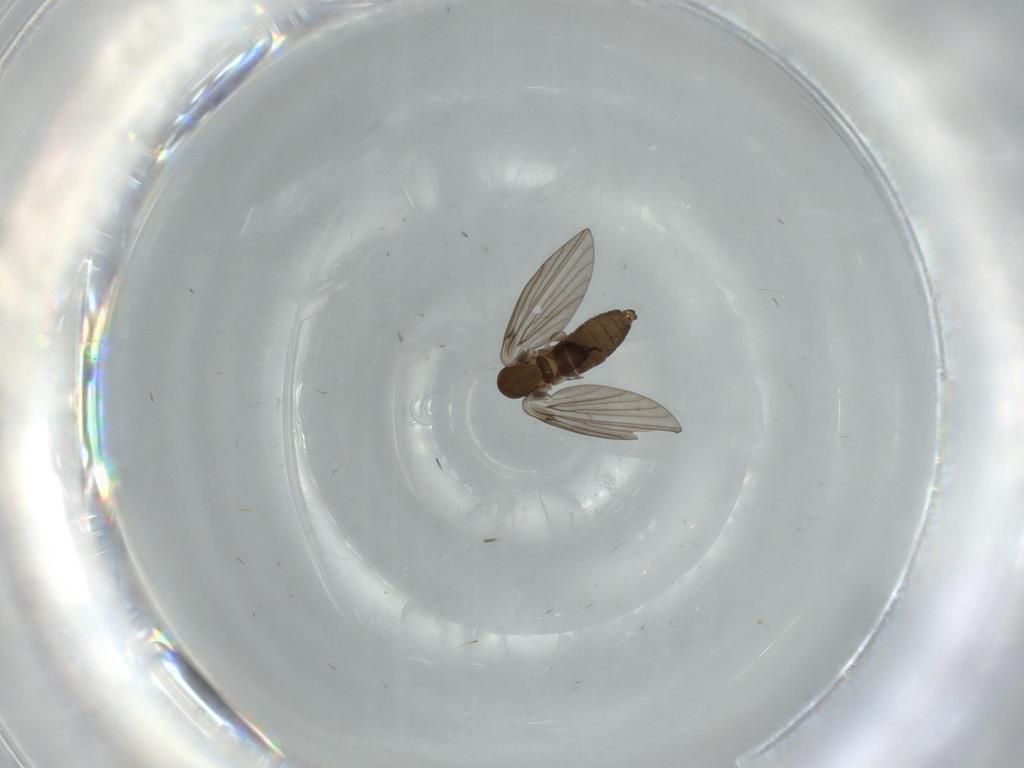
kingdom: Animalia
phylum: Arthropoda
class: Insecta
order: Diptera
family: Psychodidae
